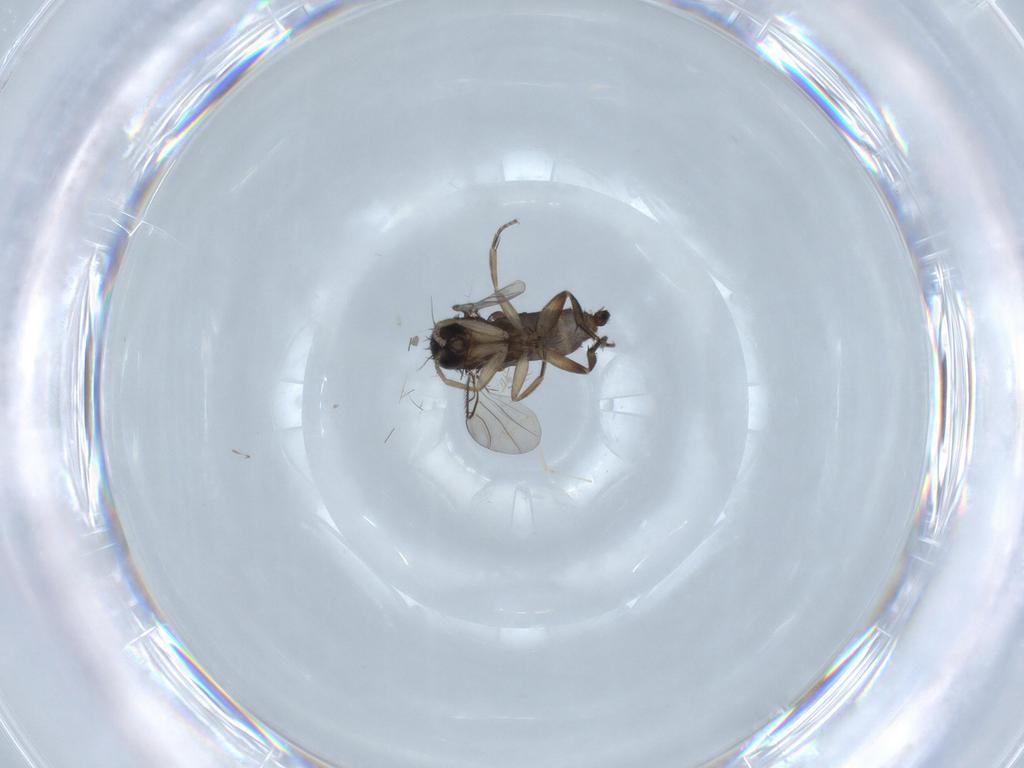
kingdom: Animalia
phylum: Arthropoda
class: Insecta
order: Diptera
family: Phoridae
